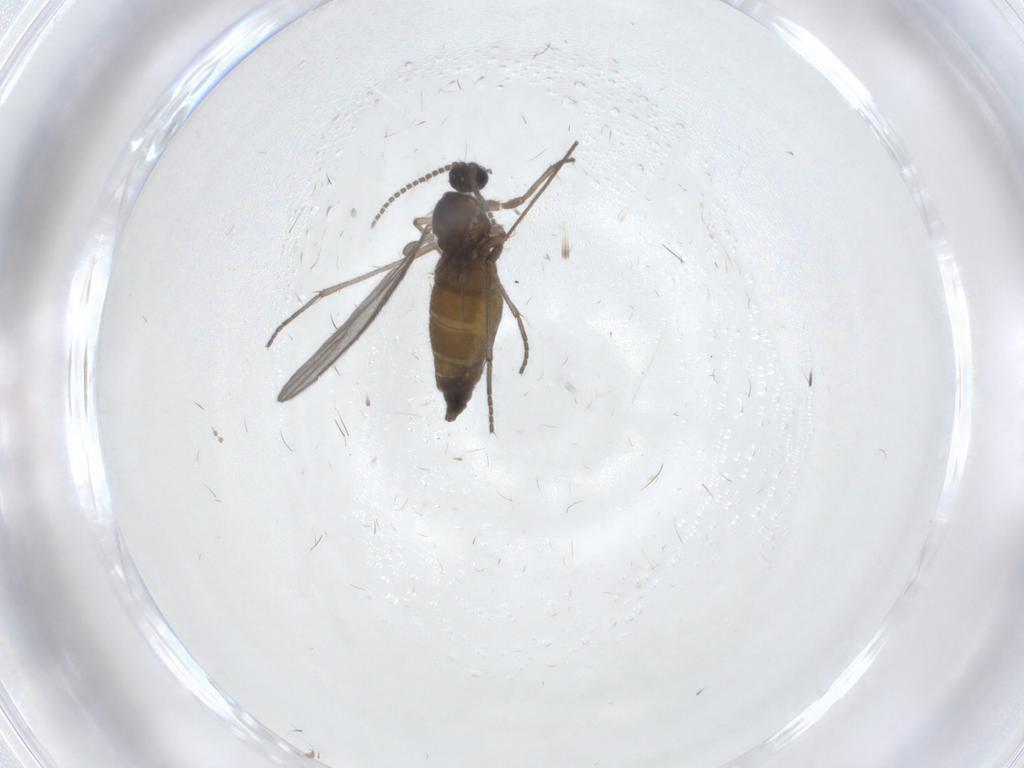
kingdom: Animalia
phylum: Arthropoda
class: Insecta
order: Diptera
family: Sciaridae
